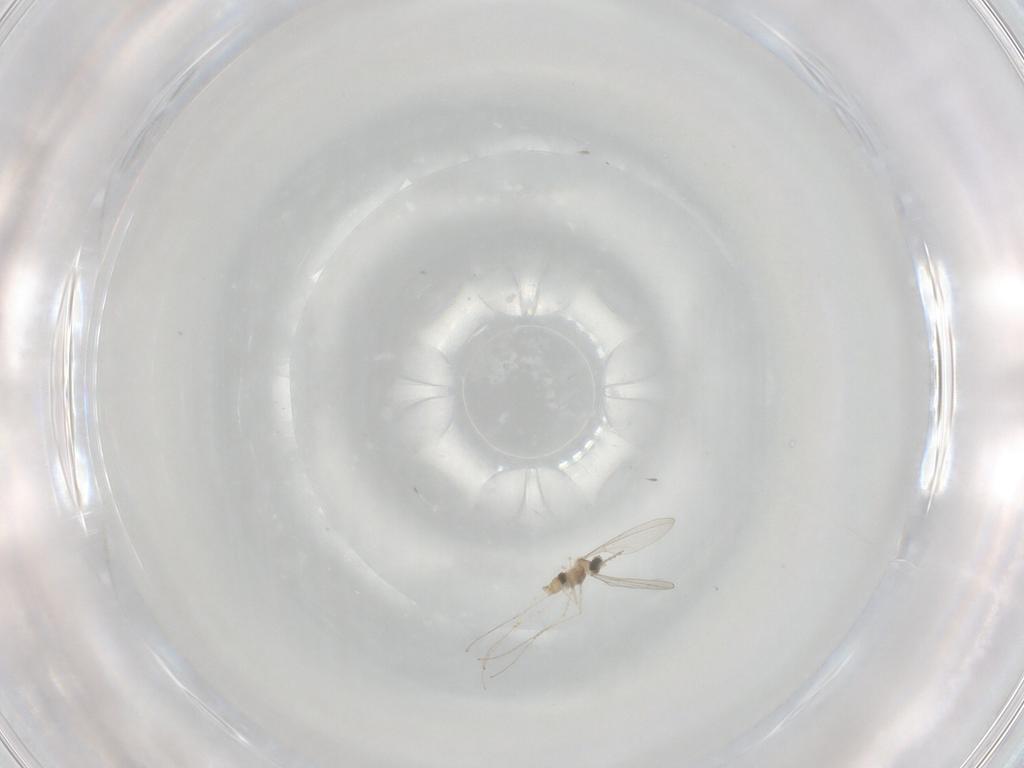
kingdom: Animalia
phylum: Arthropoda
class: Insecta
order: Diptera
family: Cecidomyiidae
